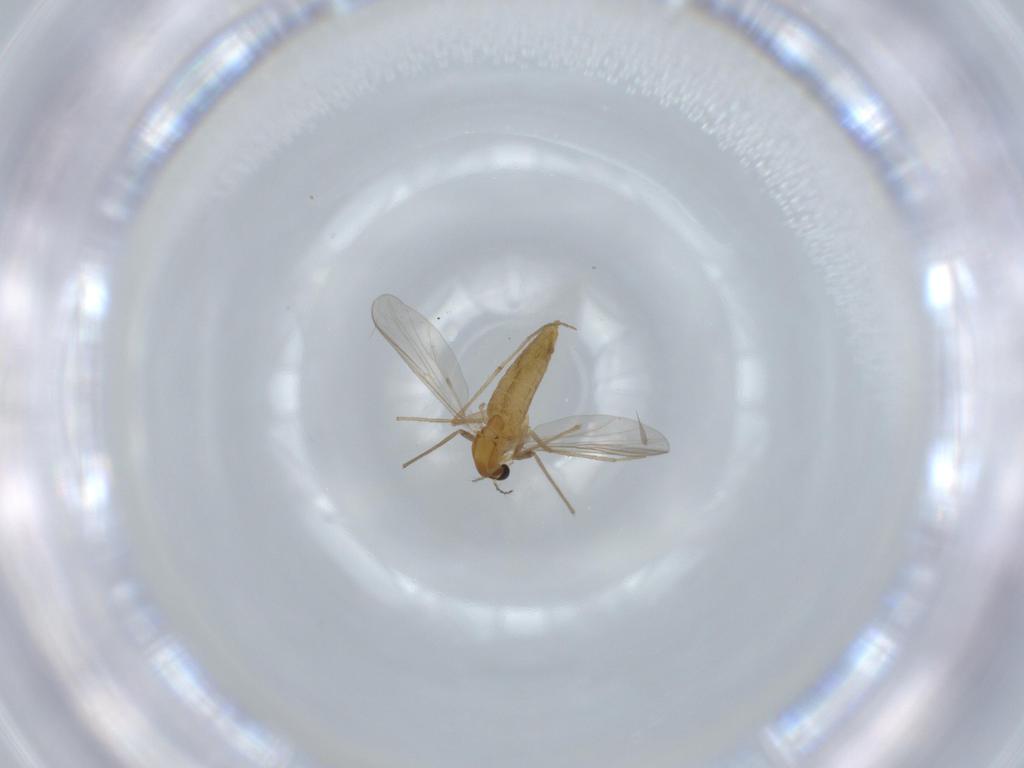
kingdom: Animalia
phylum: Arthropoda
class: Insecta
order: Diptera
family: Chironomidae
